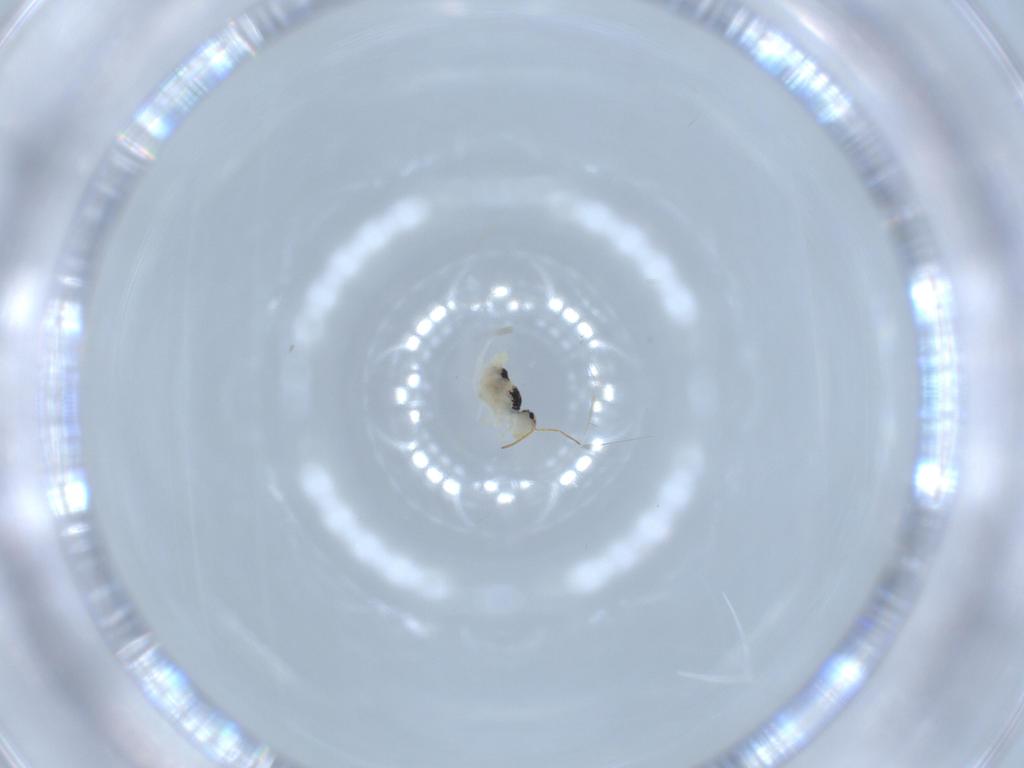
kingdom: Animalia
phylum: Arthropoda
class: Collembola
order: Symphypleona
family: Bourletiellidae
